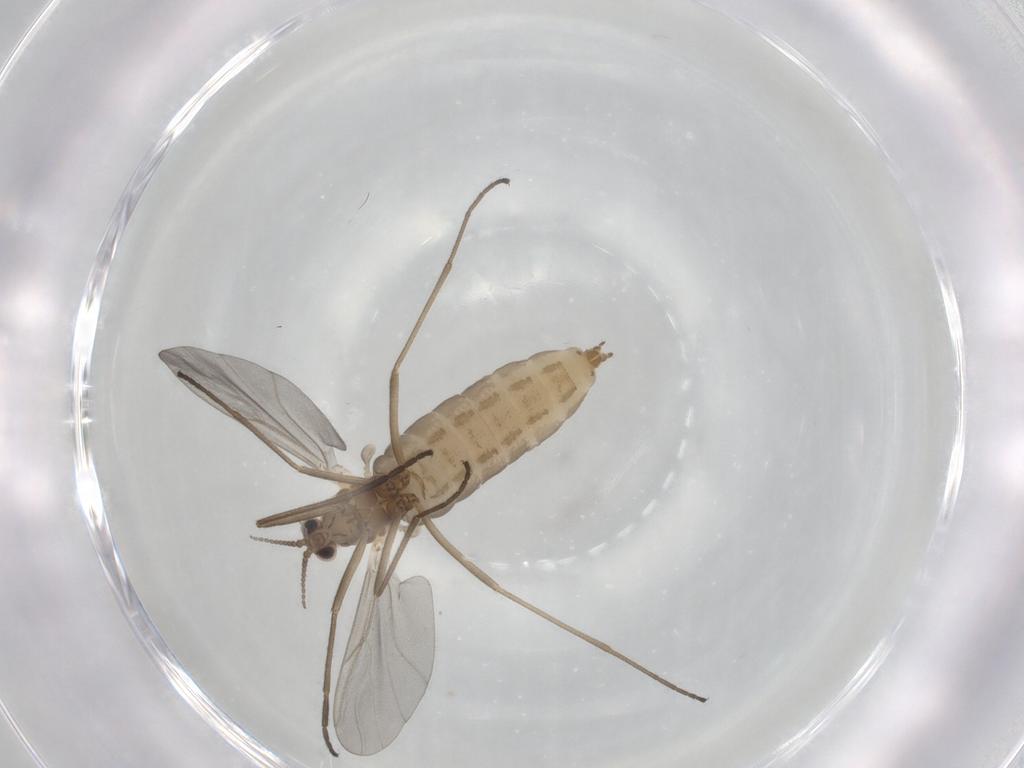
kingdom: Animalia
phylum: Arthropoda
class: Insecta
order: Diptera
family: Cecidomyiidae
